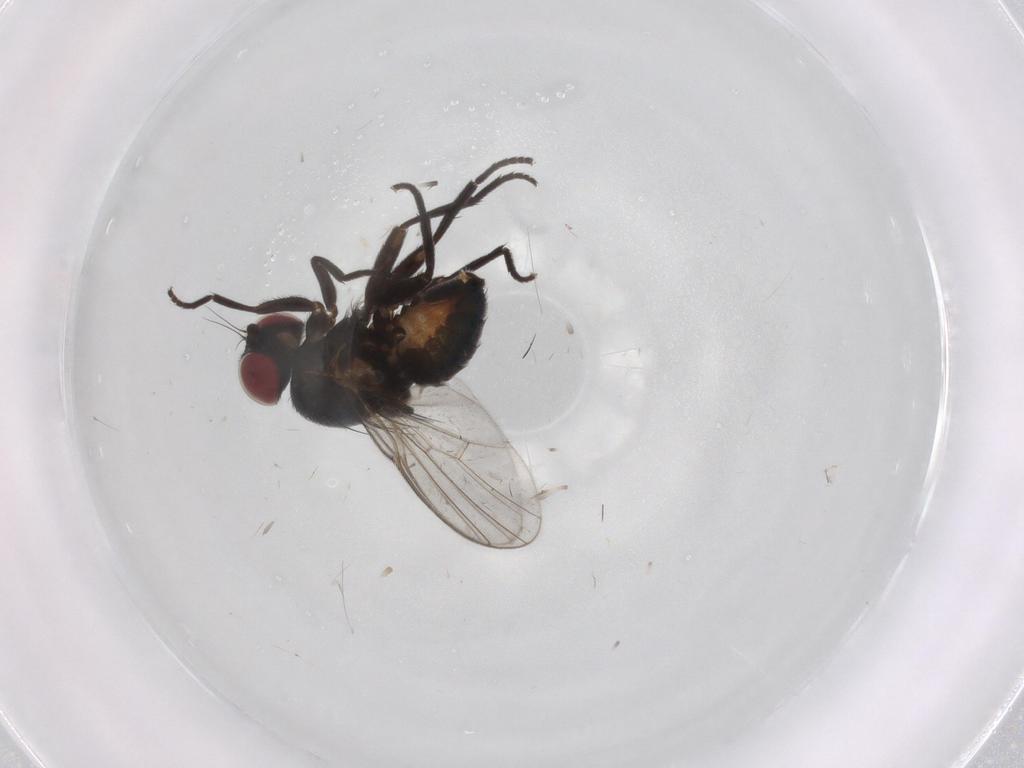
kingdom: Animalia
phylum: Arthropoda
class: Insecta
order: Diptera
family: Agromyzidae
